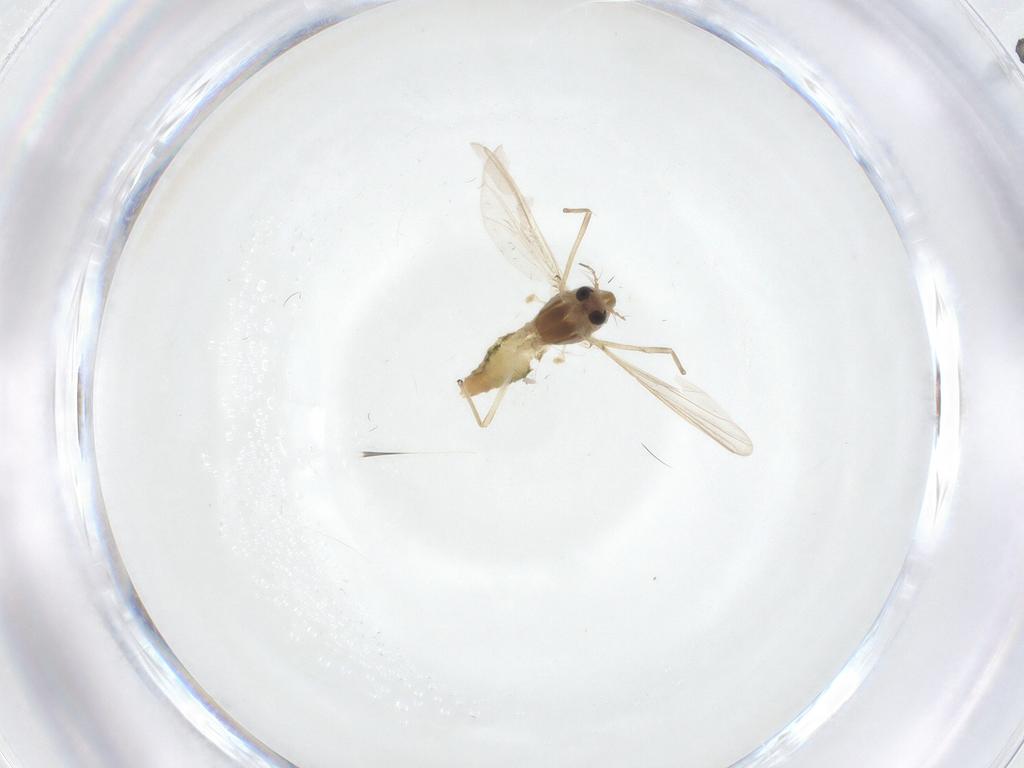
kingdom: Animalia
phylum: Arthropoda
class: Insecta
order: Diptera
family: Chironomidae
